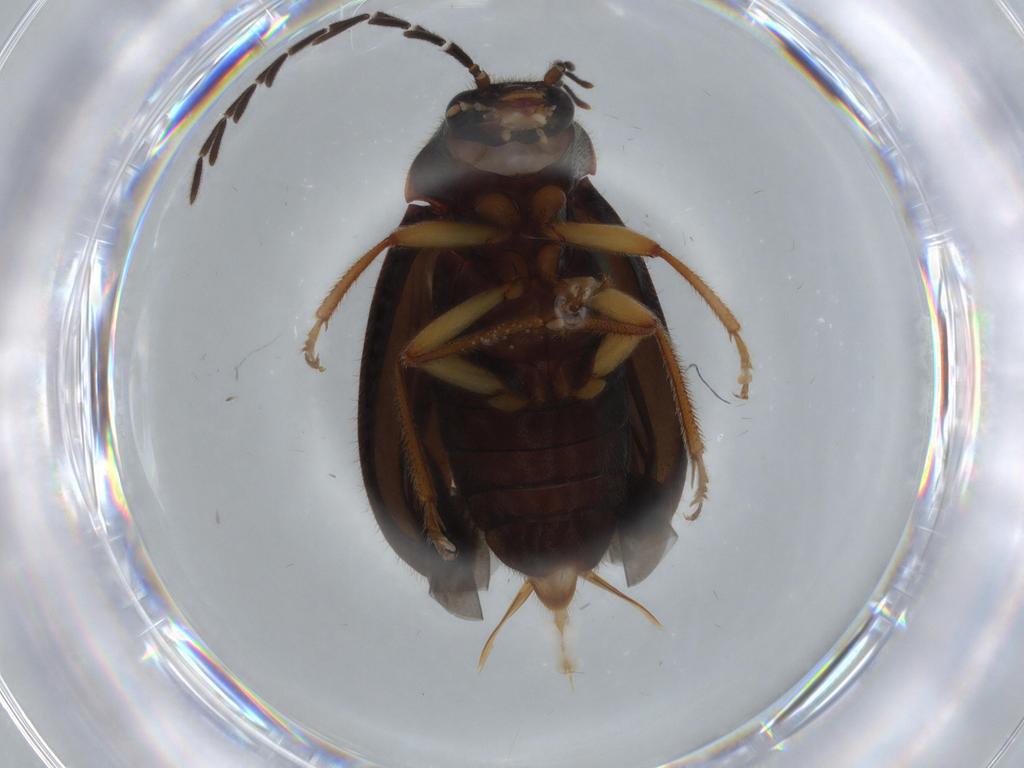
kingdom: Animalia
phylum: Arthropoda
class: Insecta
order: Coleoptera
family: Ptilodactylidae
